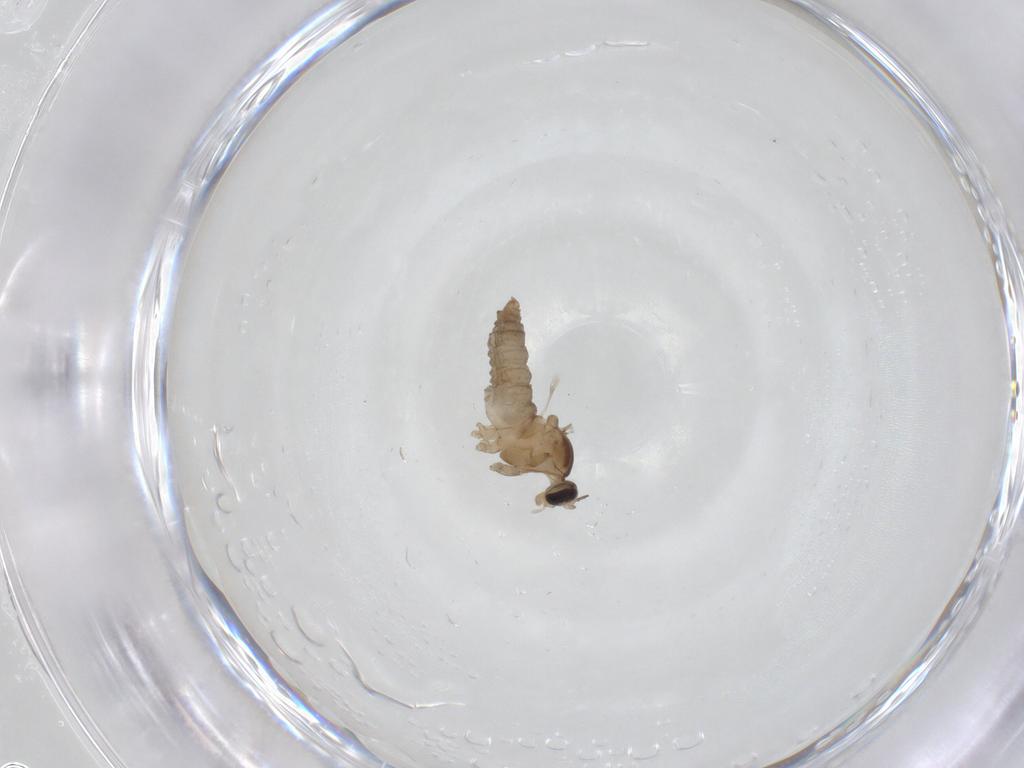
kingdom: Animalia
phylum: Arthropoda
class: Insecta
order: Diptera
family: Cecidomyiidae
